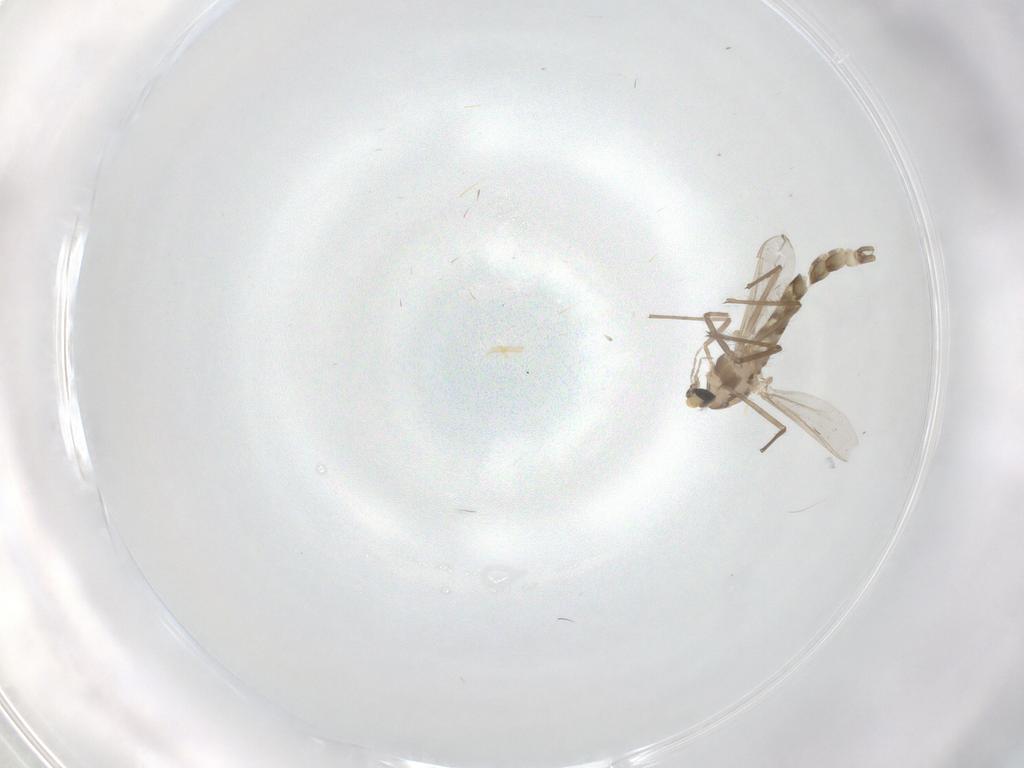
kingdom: Animalia
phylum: Arthropoda
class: Insecta
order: Diptera
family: Chironomidae
